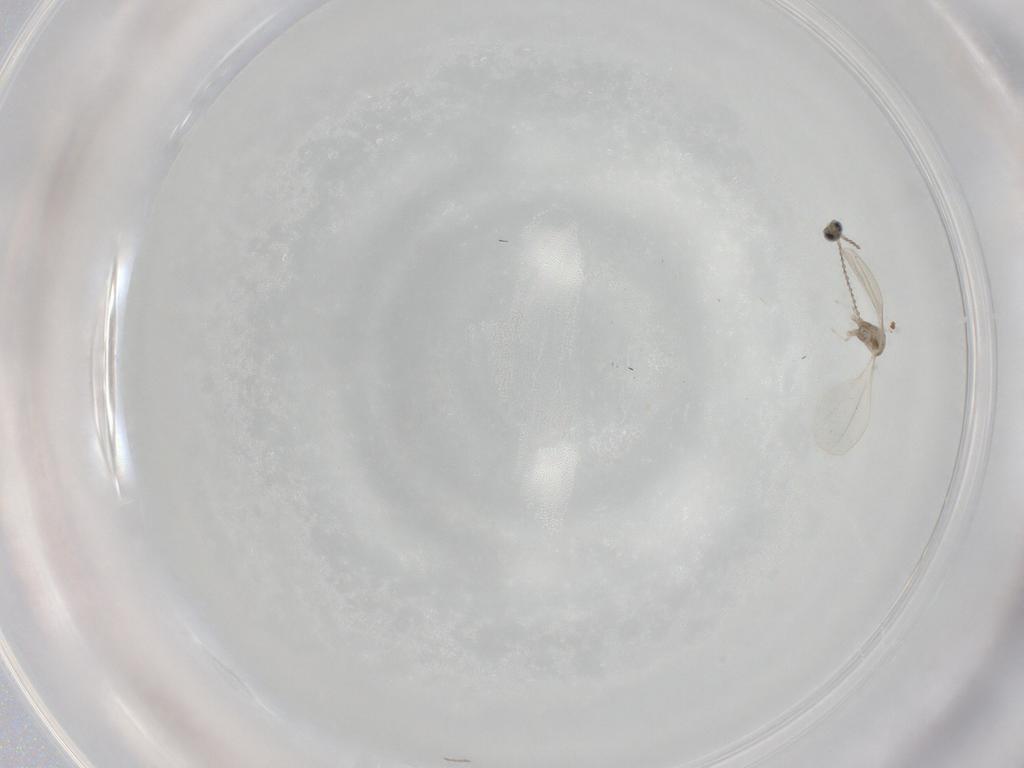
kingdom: Animalia
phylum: Arthropoda
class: Insecta
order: Diptera
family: Cecidomyiidae
